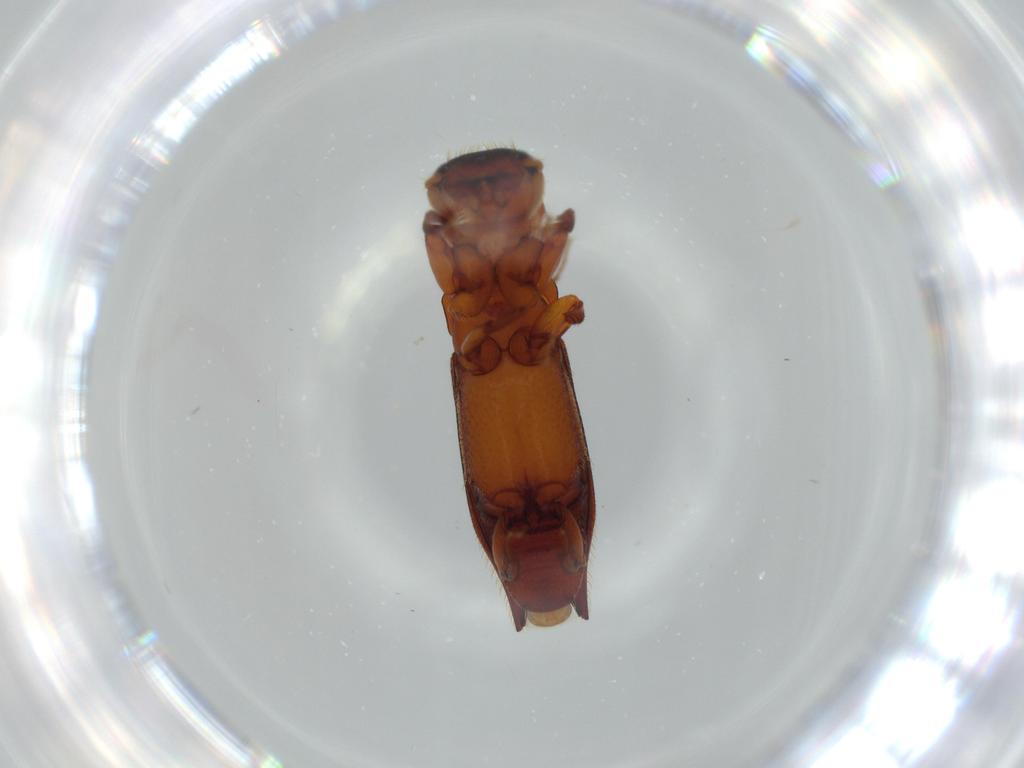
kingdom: Animalia
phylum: Arthropoda
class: Insecta
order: Coleoptera
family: Curculionidae
